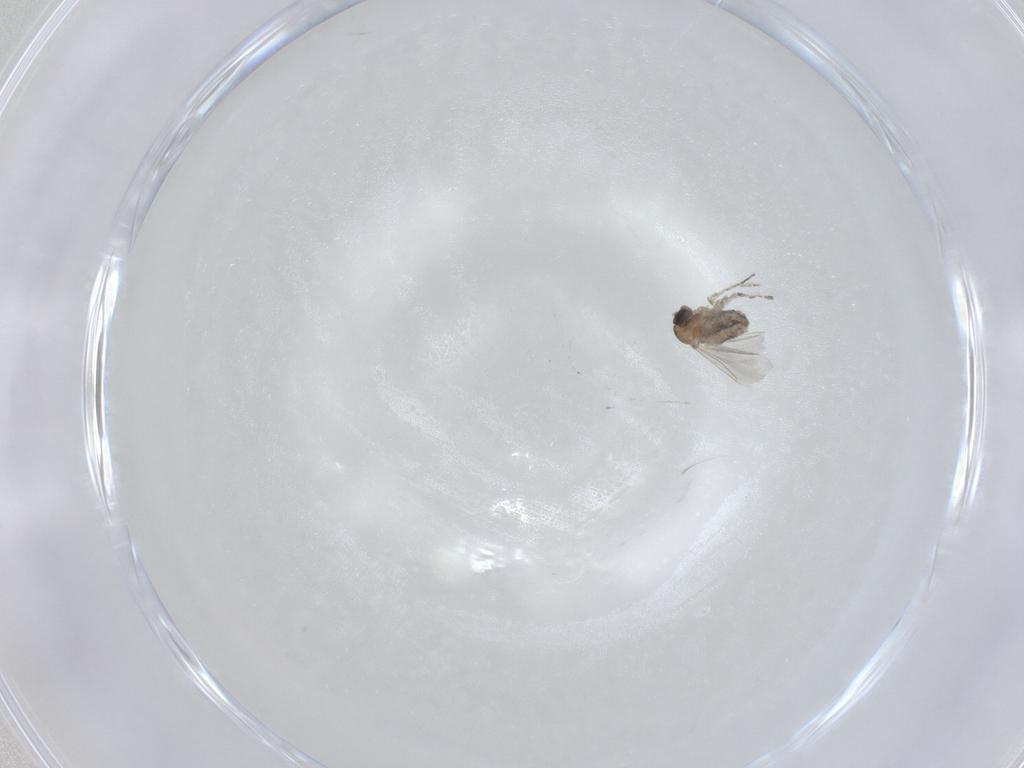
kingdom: Animalia
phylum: Arthropoda
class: Insecta
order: Diptera
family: Cecidomyiidae
